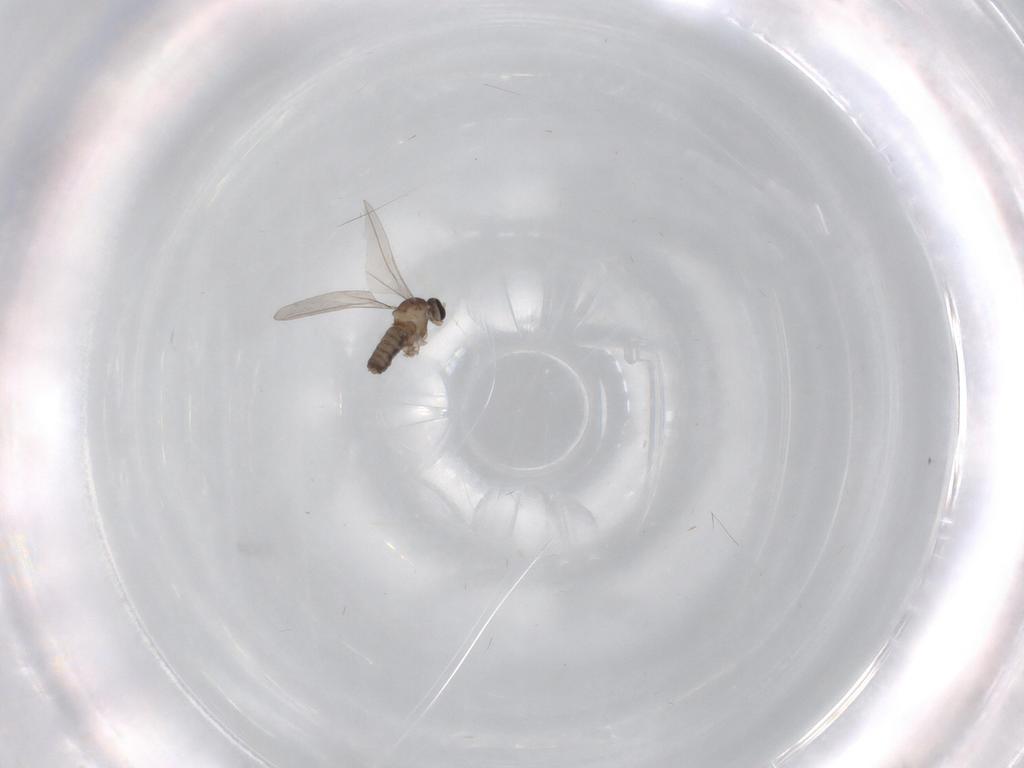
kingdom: Animalia
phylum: Arthropoda
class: Insecta
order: Diptera
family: Cecidomyiidae
